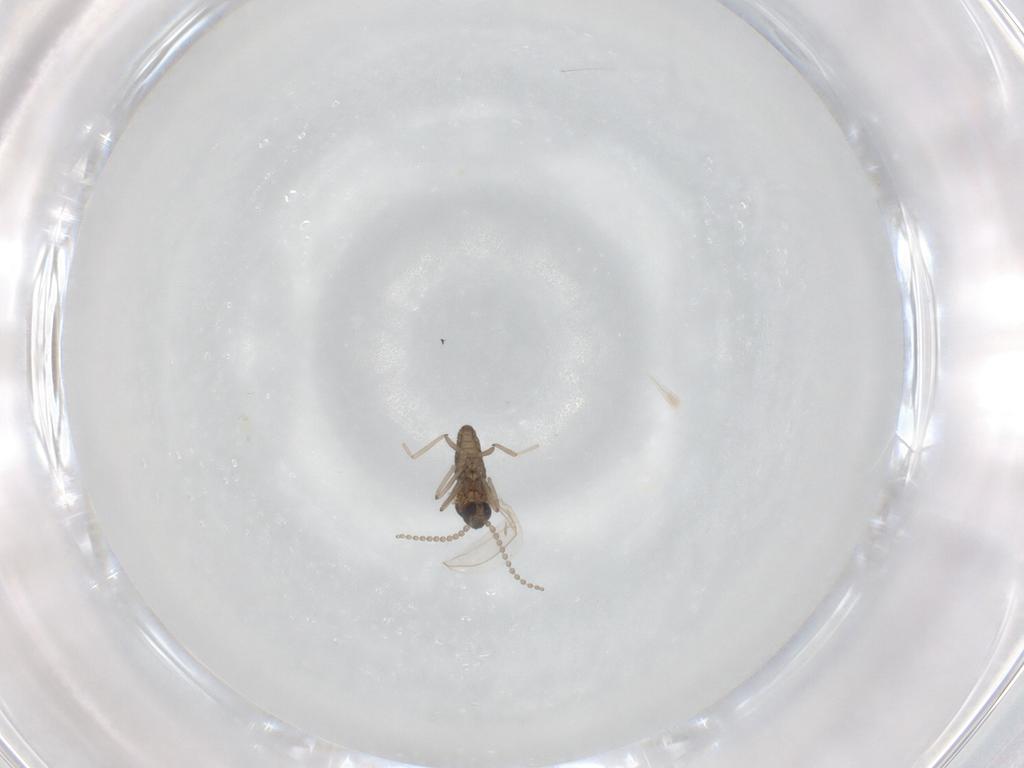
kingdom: Animalia
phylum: Arthropoda
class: Insecta
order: Diptera
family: Cecidomyiidae
